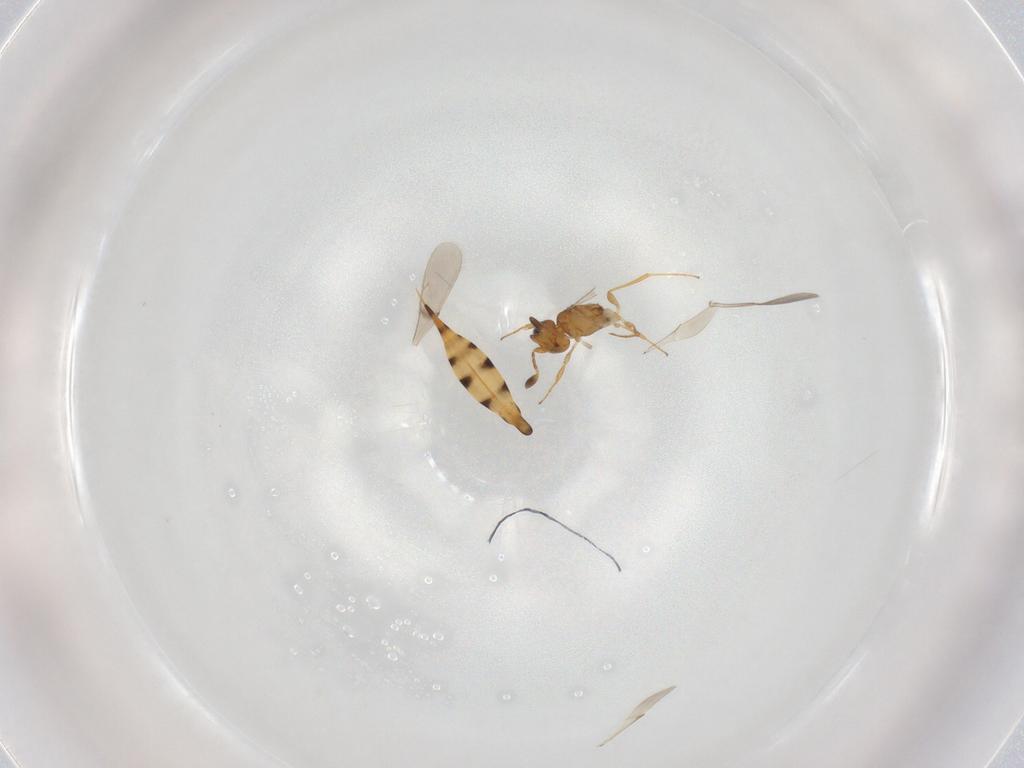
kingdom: Animalia
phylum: Arthropoda
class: Insecta
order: Hymenoptera
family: Scelionidae
